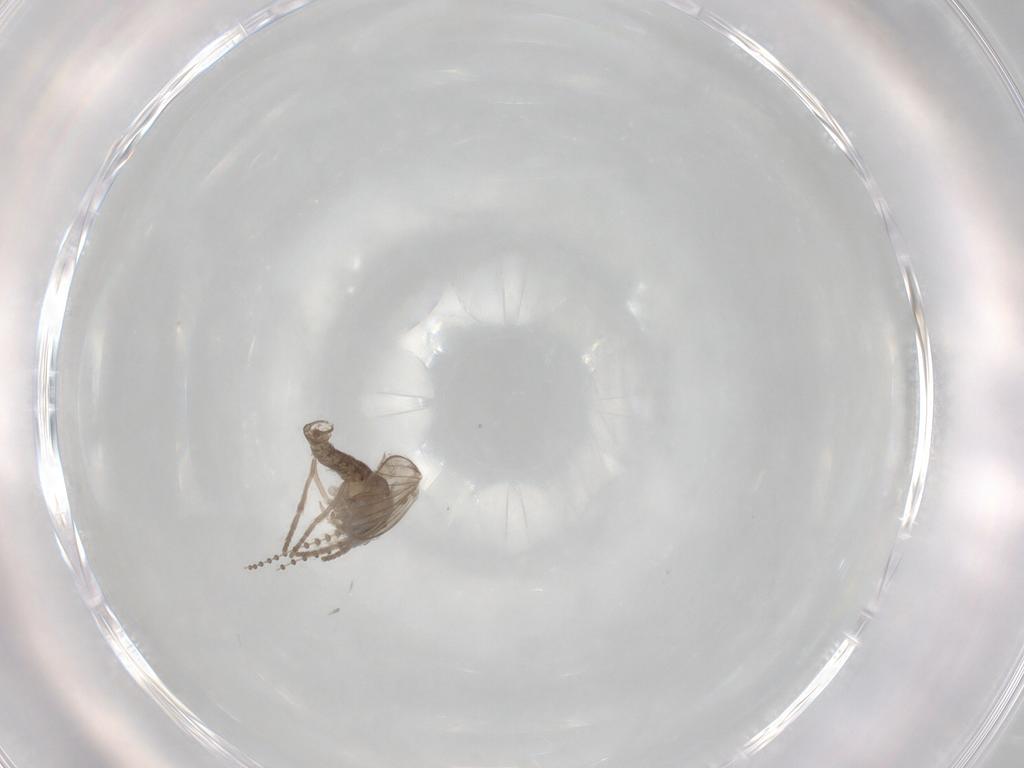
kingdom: Animalia
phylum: Arthropoda
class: Insecta
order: Diptera
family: Psychodidae
